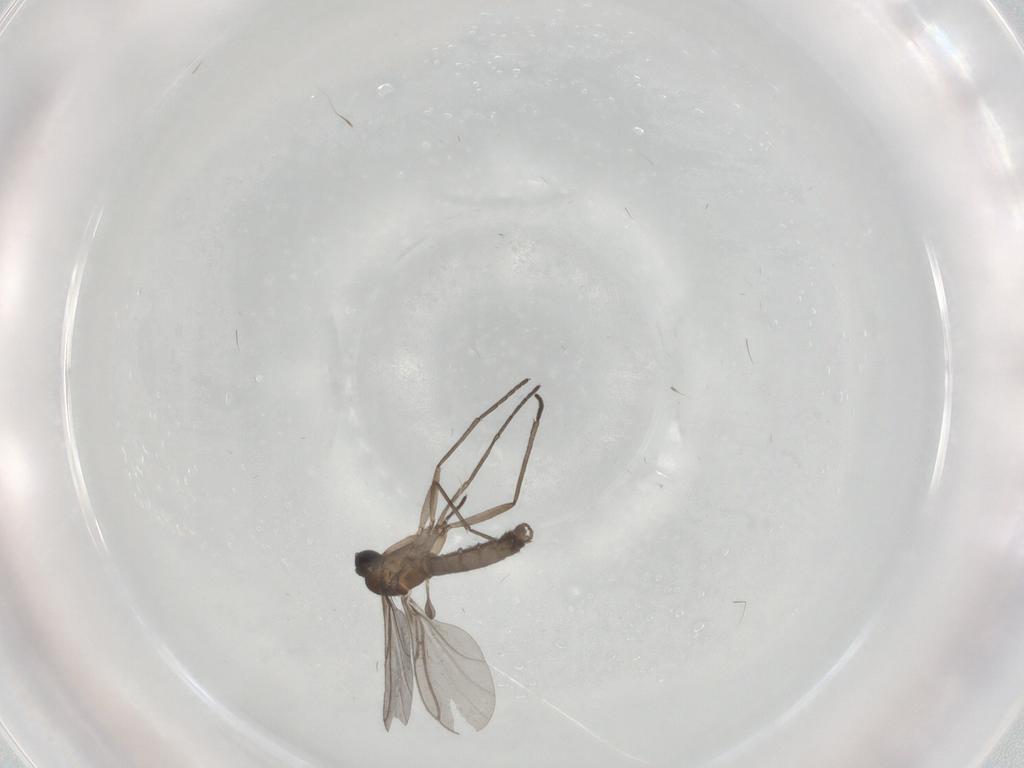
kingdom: Animalia
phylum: Arthropoda
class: Insecta
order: Diptera
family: Sciaridae
